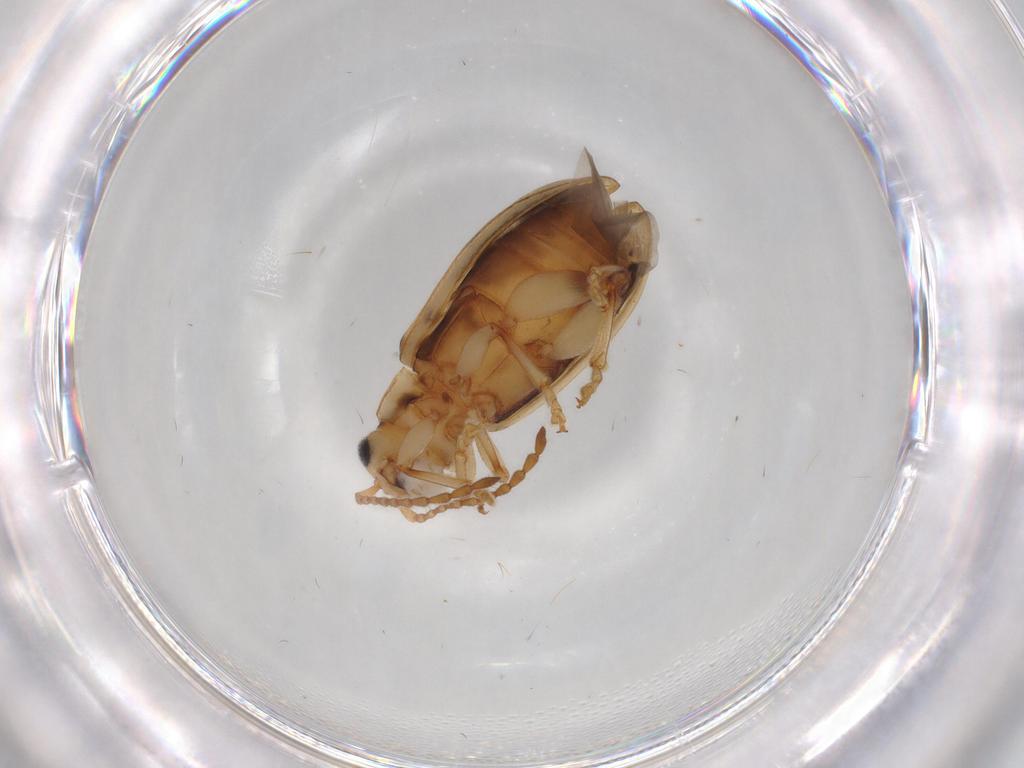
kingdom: Animalia
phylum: Arthropoda
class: Insecta
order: Coleoptera
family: Chrysomelidae
